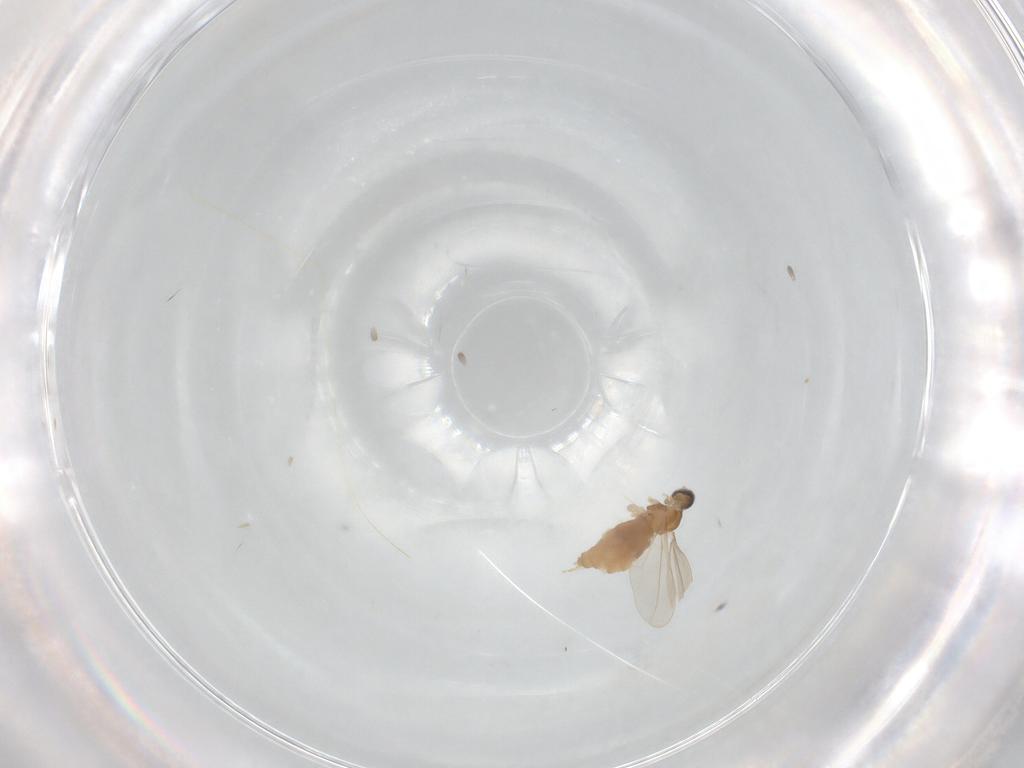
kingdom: Animalia
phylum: Arthropoda
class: Insecta
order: Diptera
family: Cecidomyiidae
